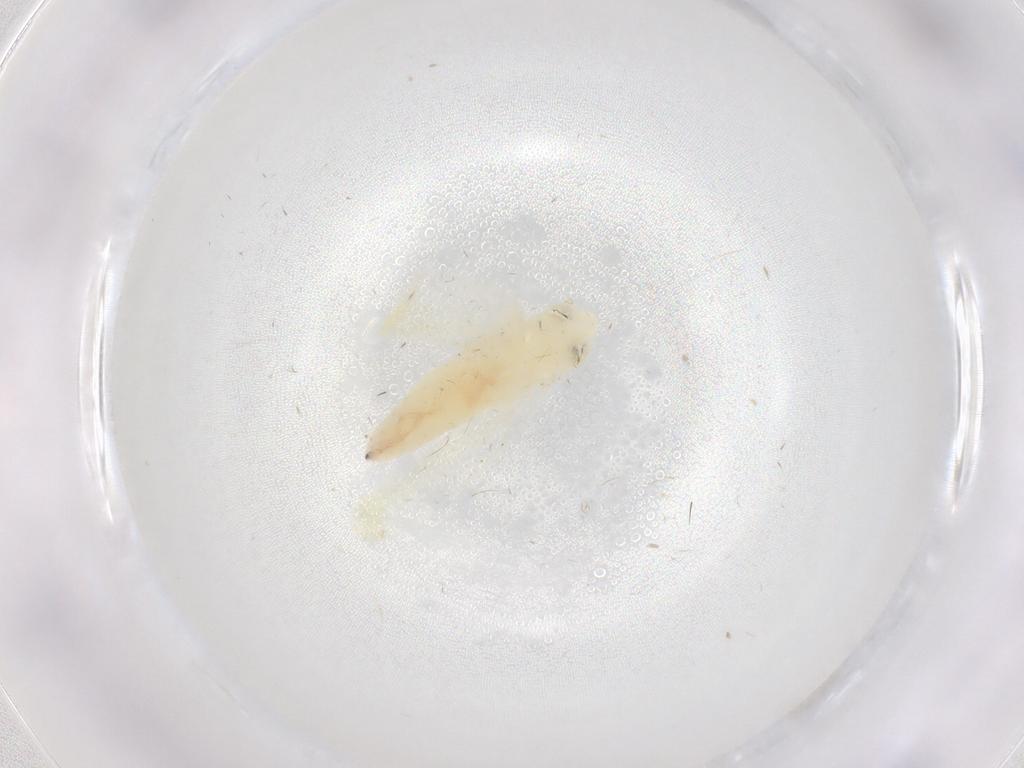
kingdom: Animalia
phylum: Arthropoda
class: Insecta
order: Hemiptera
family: Cicadellidae
